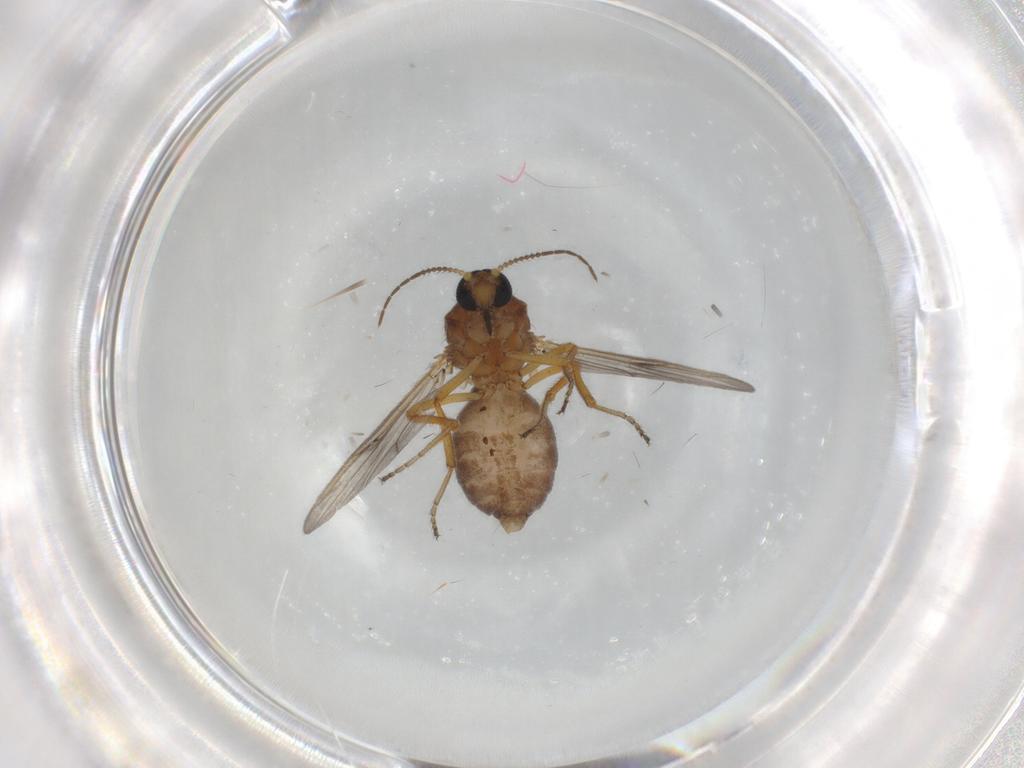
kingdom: Animalia
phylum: Arthropoda
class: Insecta
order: Diptera
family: Ceratopogonidae
